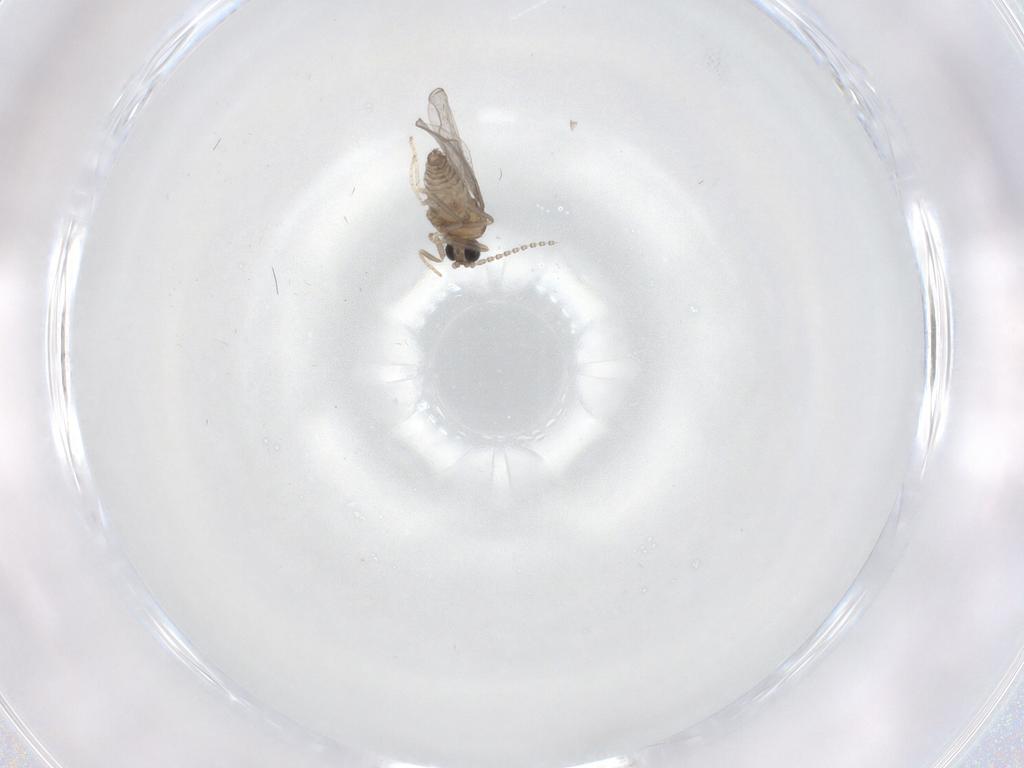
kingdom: Animalia
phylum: Arthropoda
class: Insecta
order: Diptera
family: Cecidomyiidae
